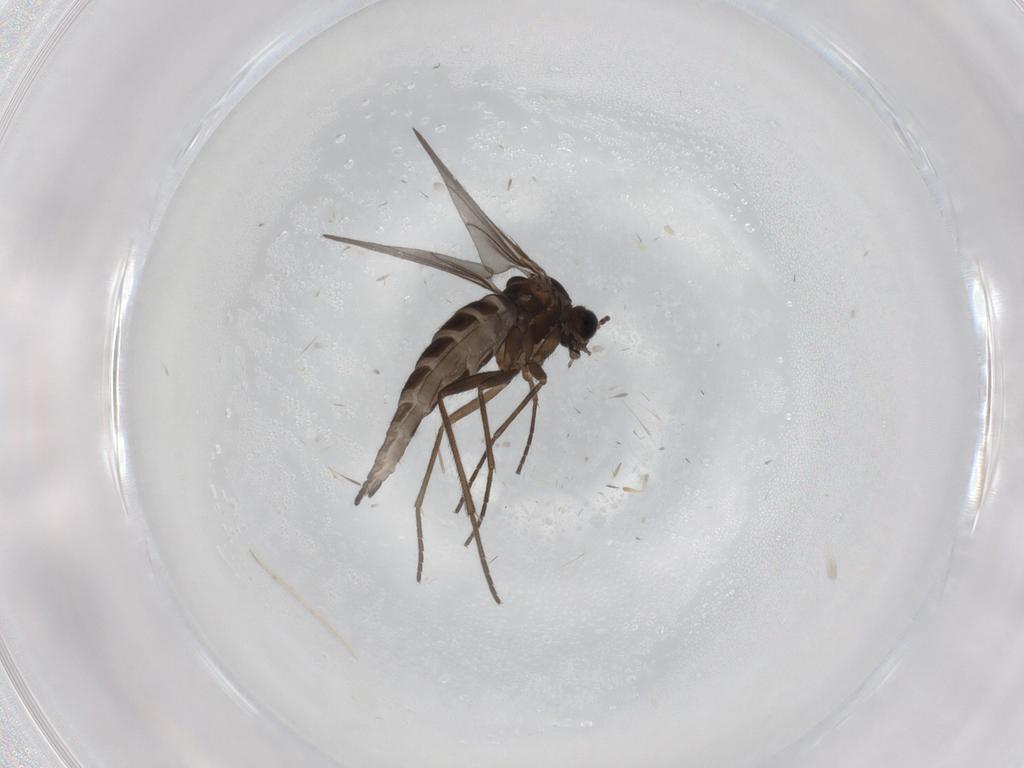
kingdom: Animalia
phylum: Arthropoda
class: Insecta
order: Diptera
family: Sciaridae
